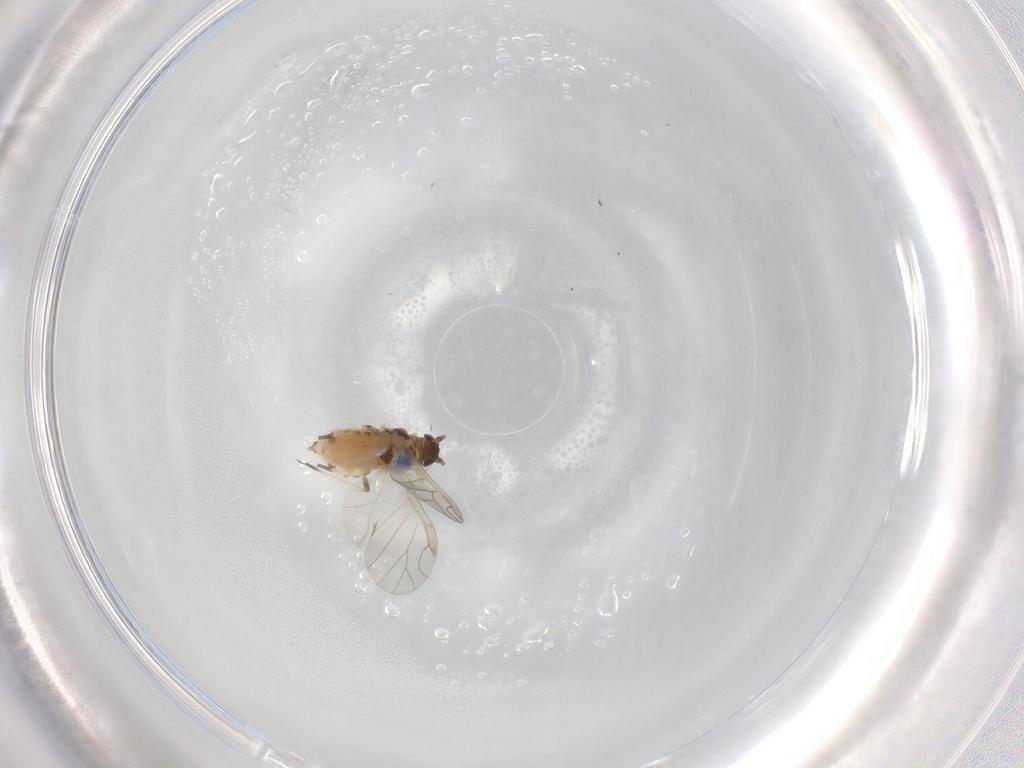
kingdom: Animalia
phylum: Arthropoda
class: Insecta
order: Hemiptera
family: Aphididae
